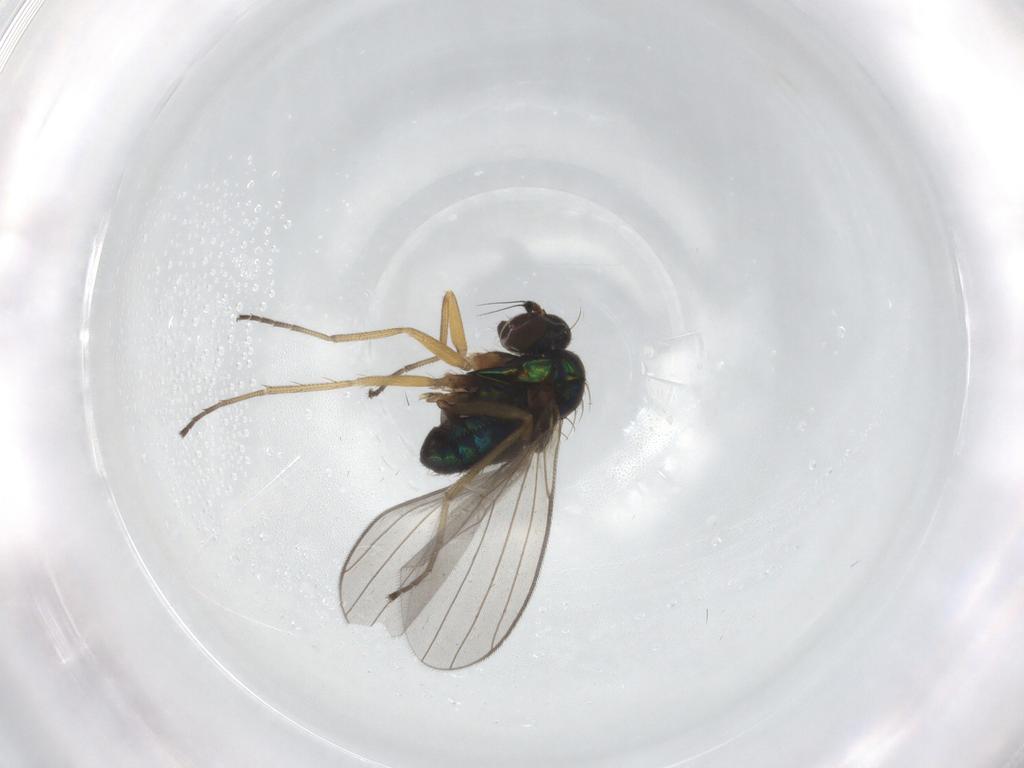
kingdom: Animalia
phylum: Arthropoda
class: Insecta
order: Diptera
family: Dolichopodidae
